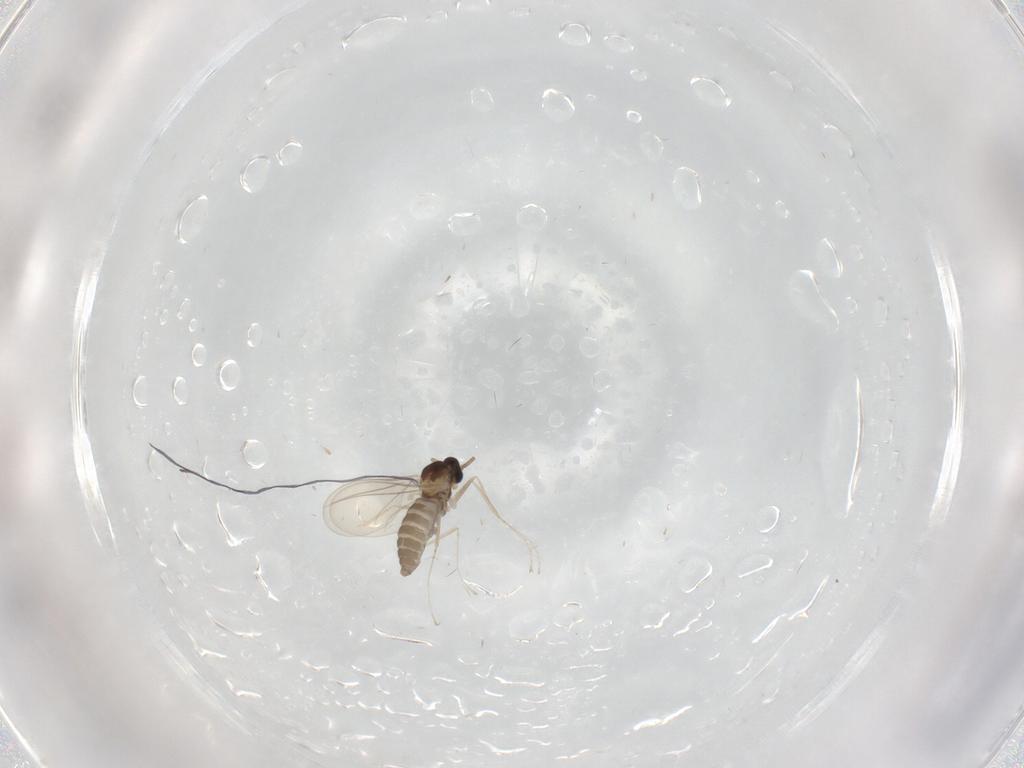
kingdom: Animalia
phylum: Arthropoda
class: Insecta
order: Diptera
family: Cecidomyiidae
